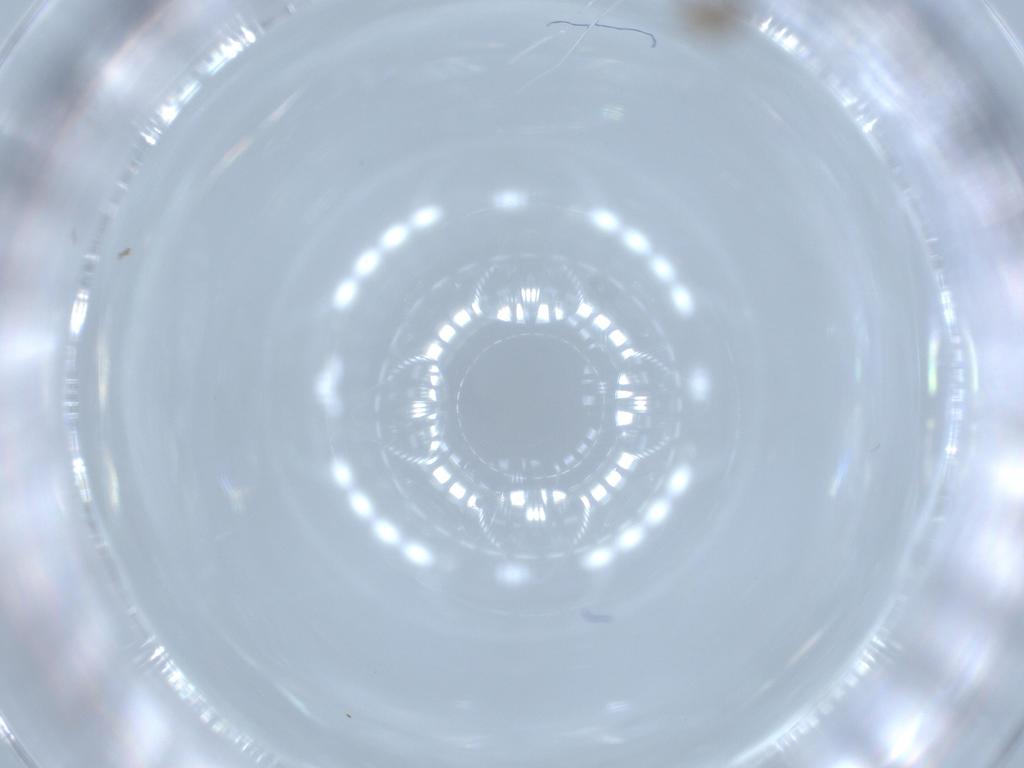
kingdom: Animalia
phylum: Arthropoda
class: Insecta
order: Diptera
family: Cecidomyiidae
